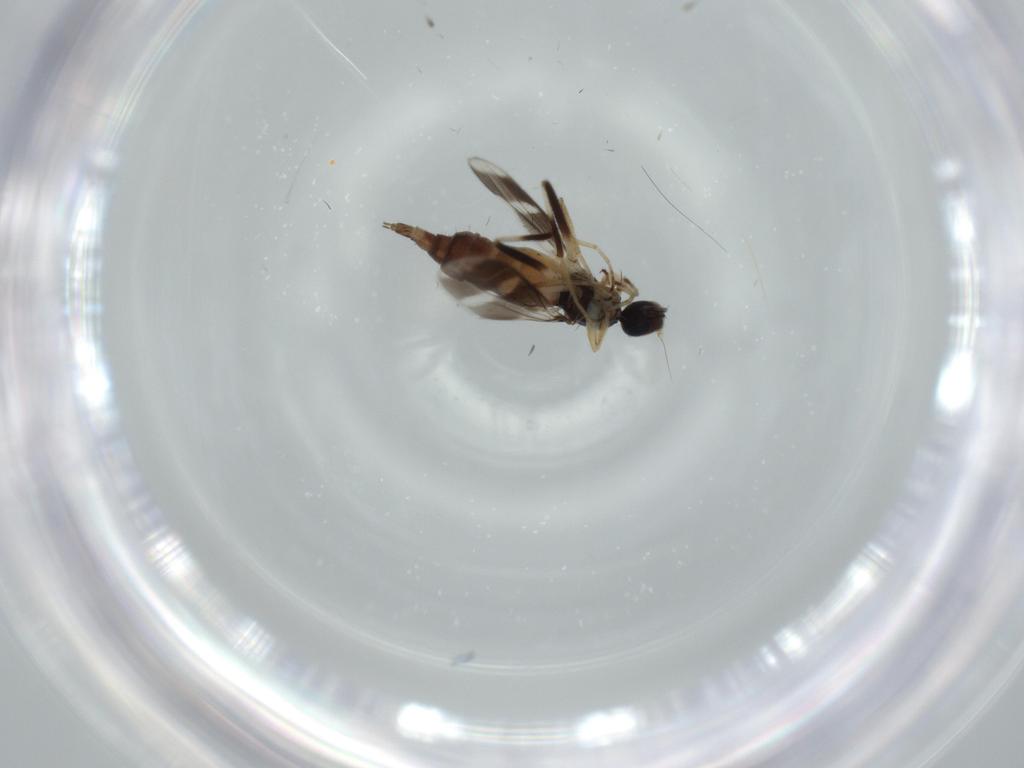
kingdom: Animalia
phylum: Arthropoda
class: Insecta
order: Diptera
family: Hybotidae
